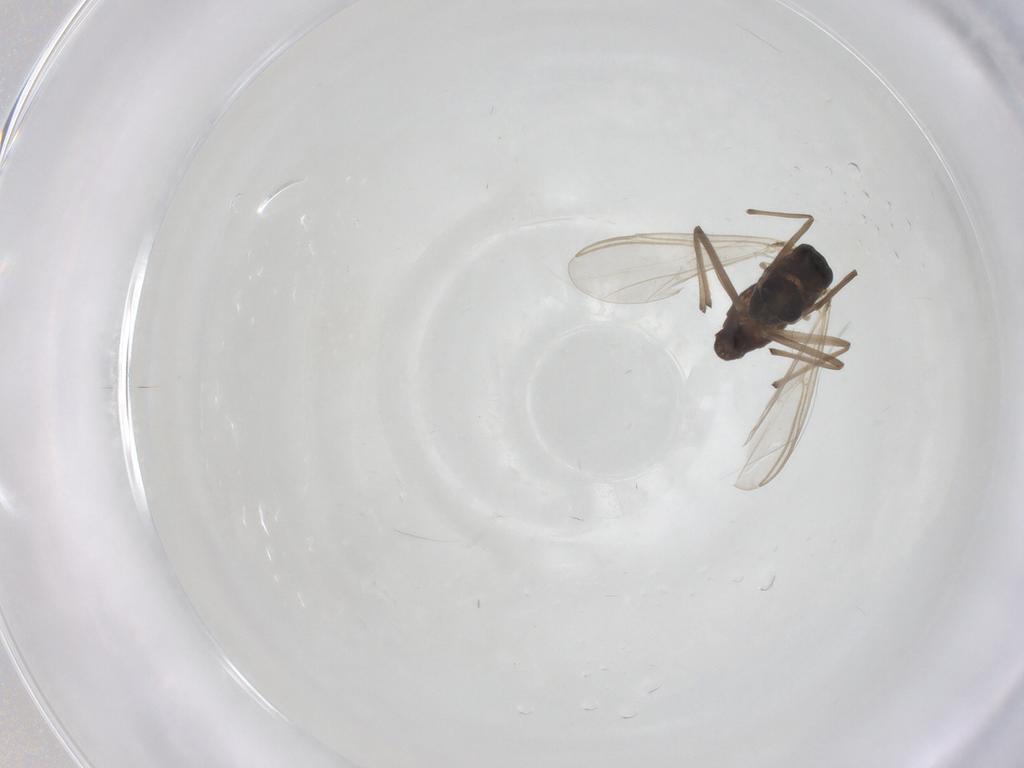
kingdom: Animalia
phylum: Arthropoda
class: Insecta
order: Diptera
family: Chironomidae
